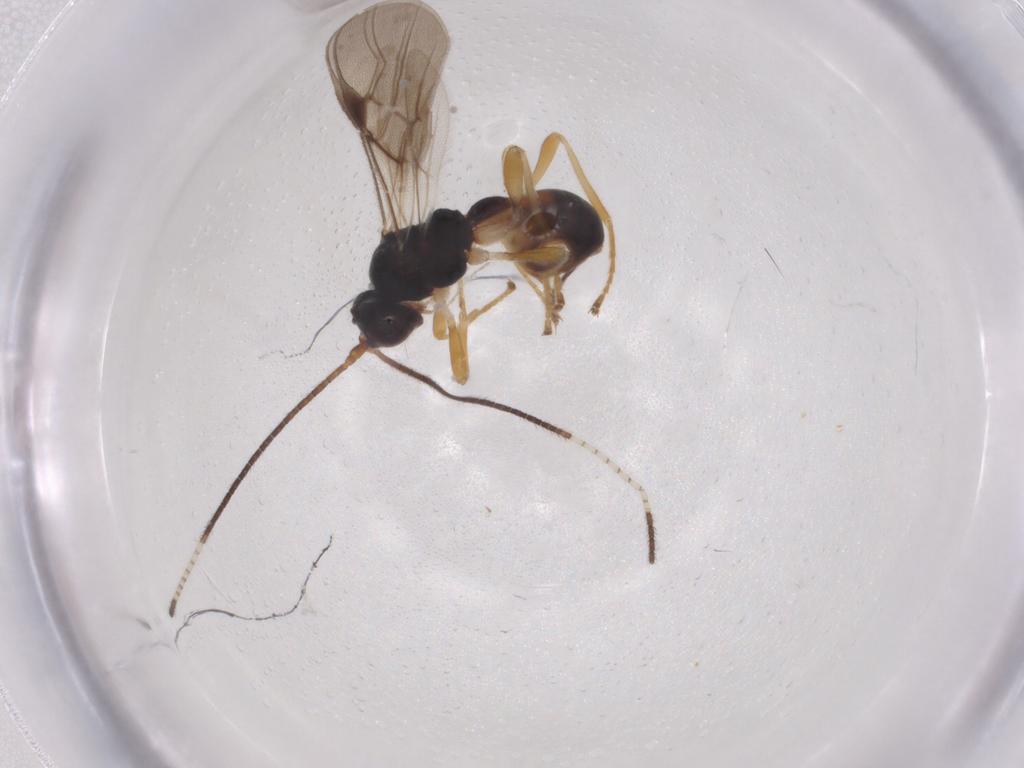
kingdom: Animalia
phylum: Arthropoda
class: Insecta
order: Hymenoptera
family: Braconidae
